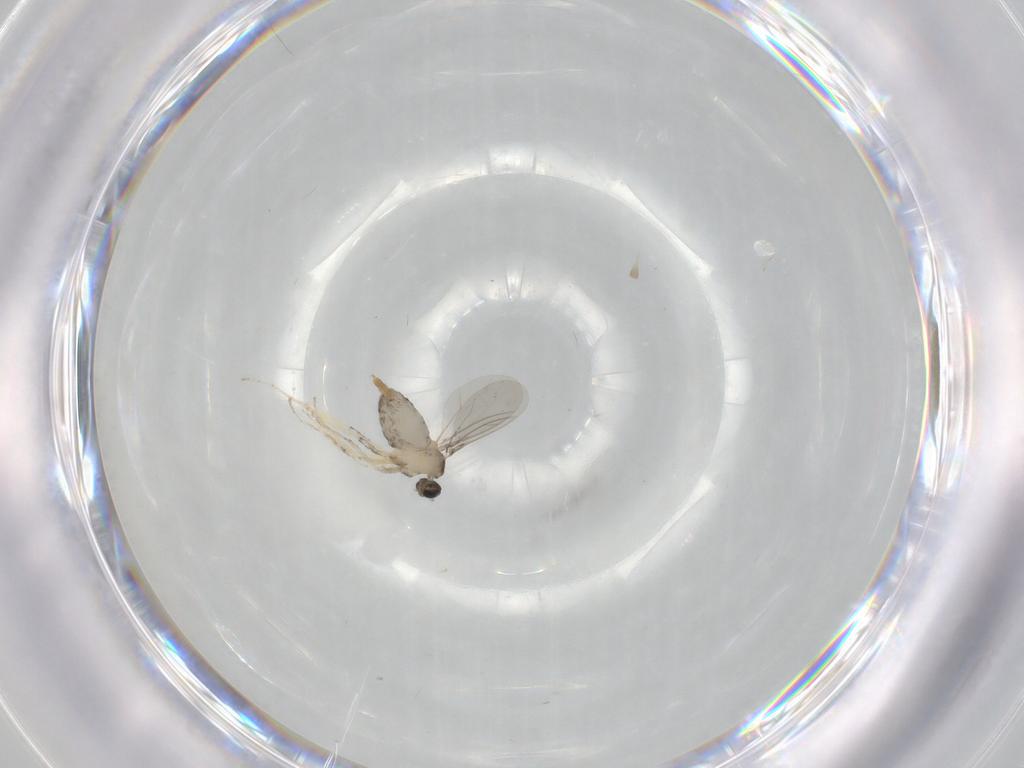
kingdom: Animalia
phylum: Arthropoda
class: Insecta
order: Diptera
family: Cecidomyiidae
